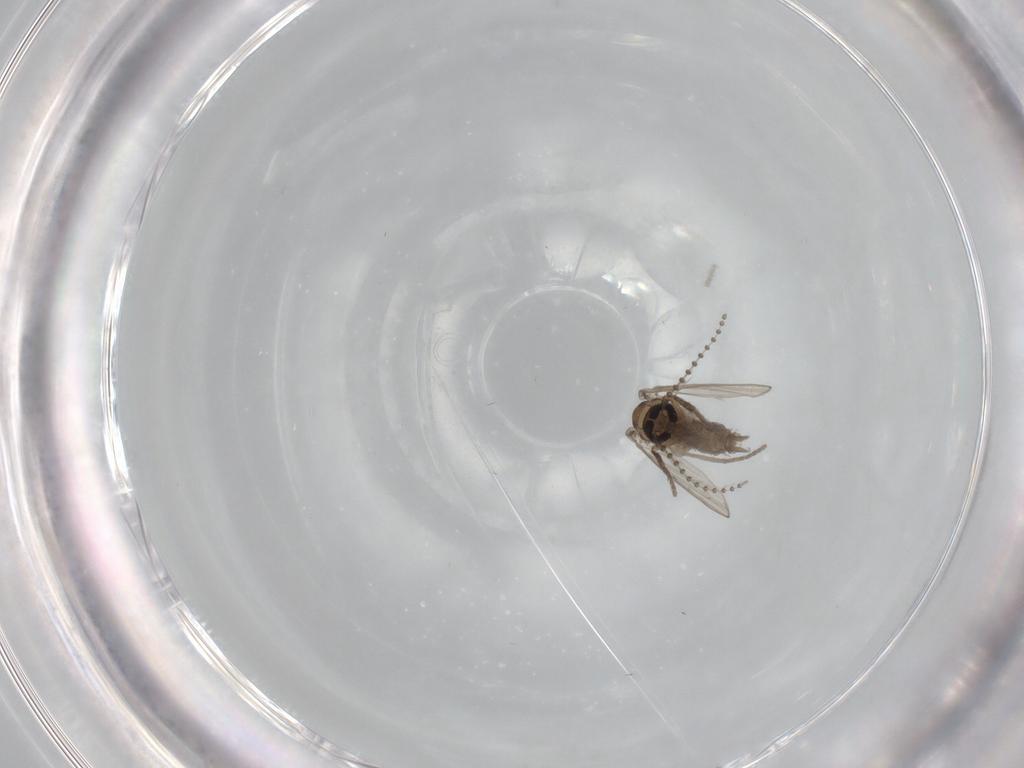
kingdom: Animalia
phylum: Arthropoda
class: Insecta
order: Diptera
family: Psychodidae
